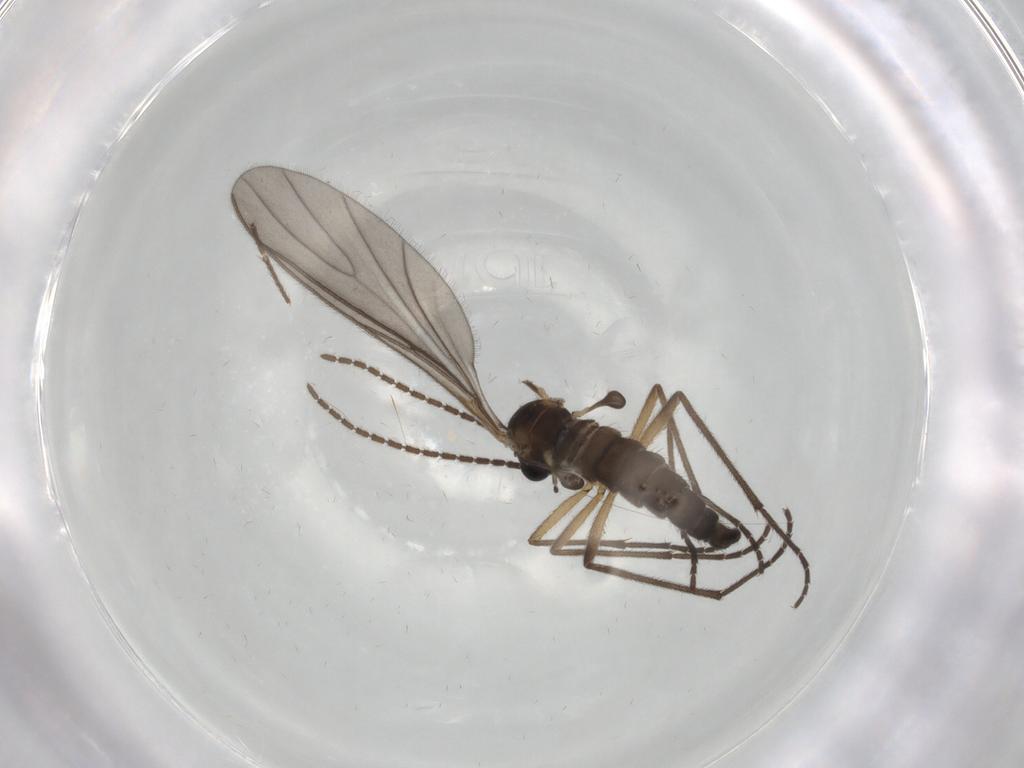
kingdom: Animalia
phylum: Arthropoda
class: Insecta
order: Diptera
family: Sciaridae
